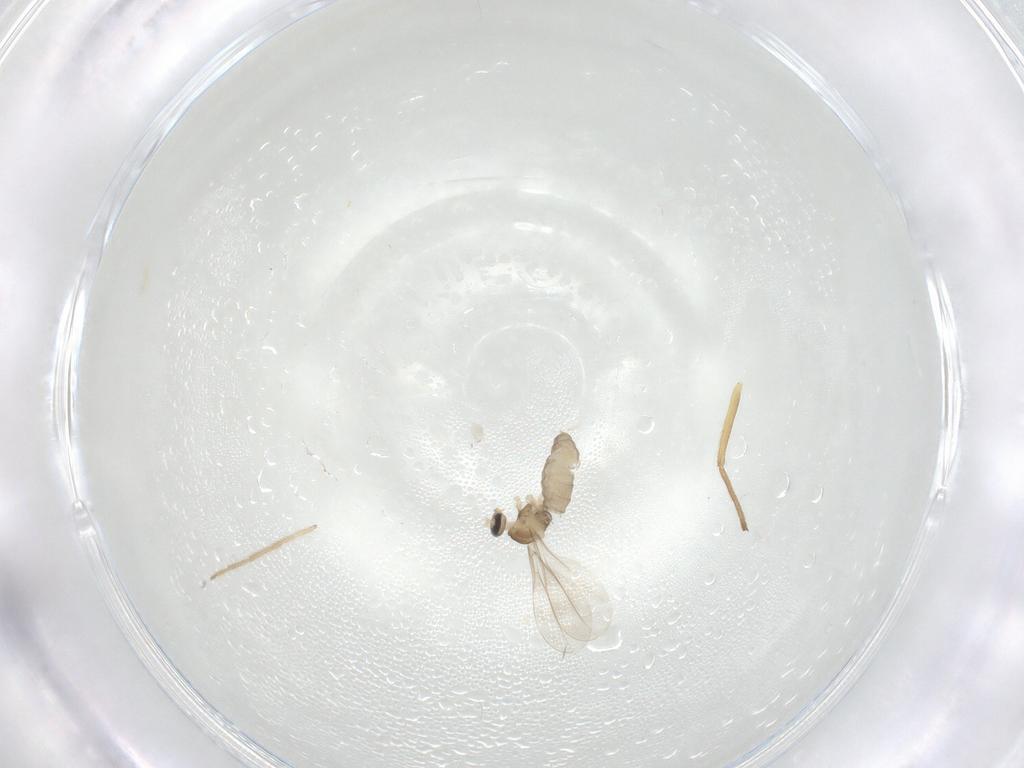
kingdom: Animalia
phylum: Arthropoda
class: Insecta
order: Diptera
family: Cecidomyiidae
